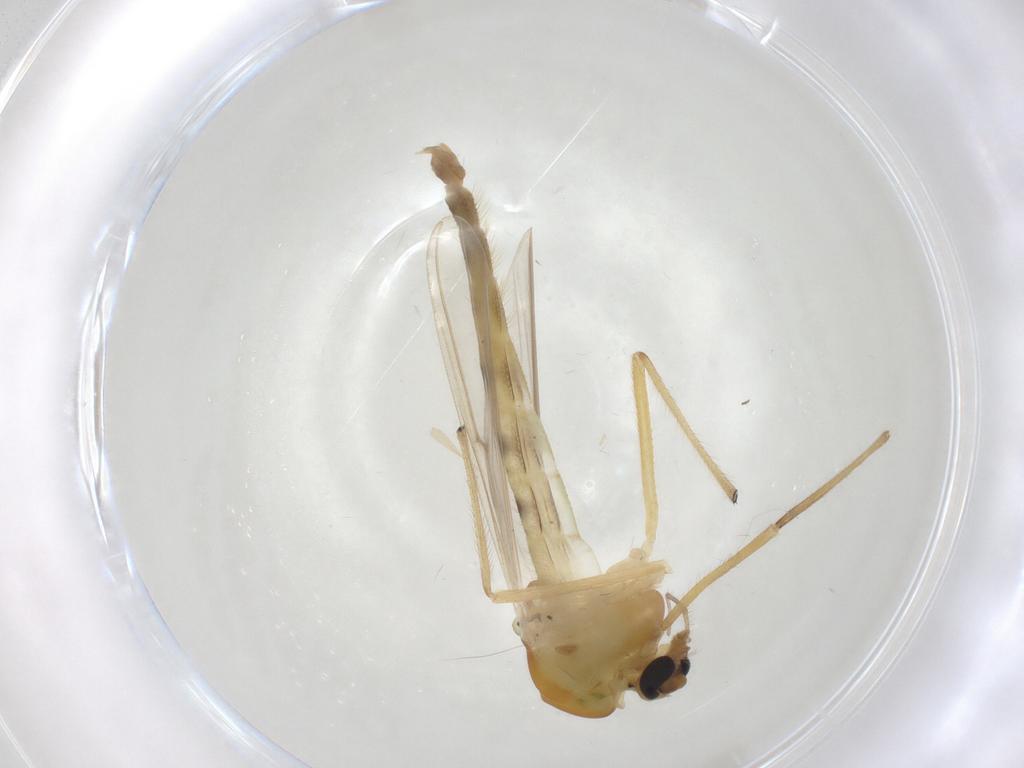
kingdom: Animalia
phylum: Arthropoda
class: Insecta
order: Diptera
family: Chironomidae
